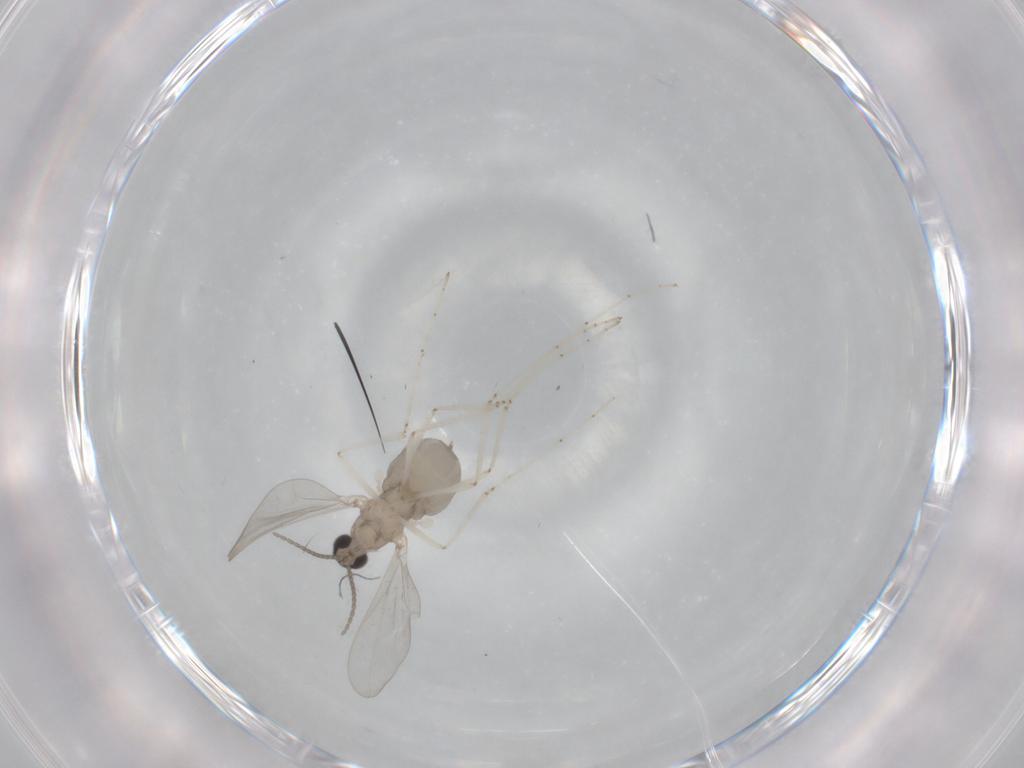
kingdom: Animalia
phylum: Arthropoda
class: Insecta
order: Diptera
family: Cecidomyiidae
